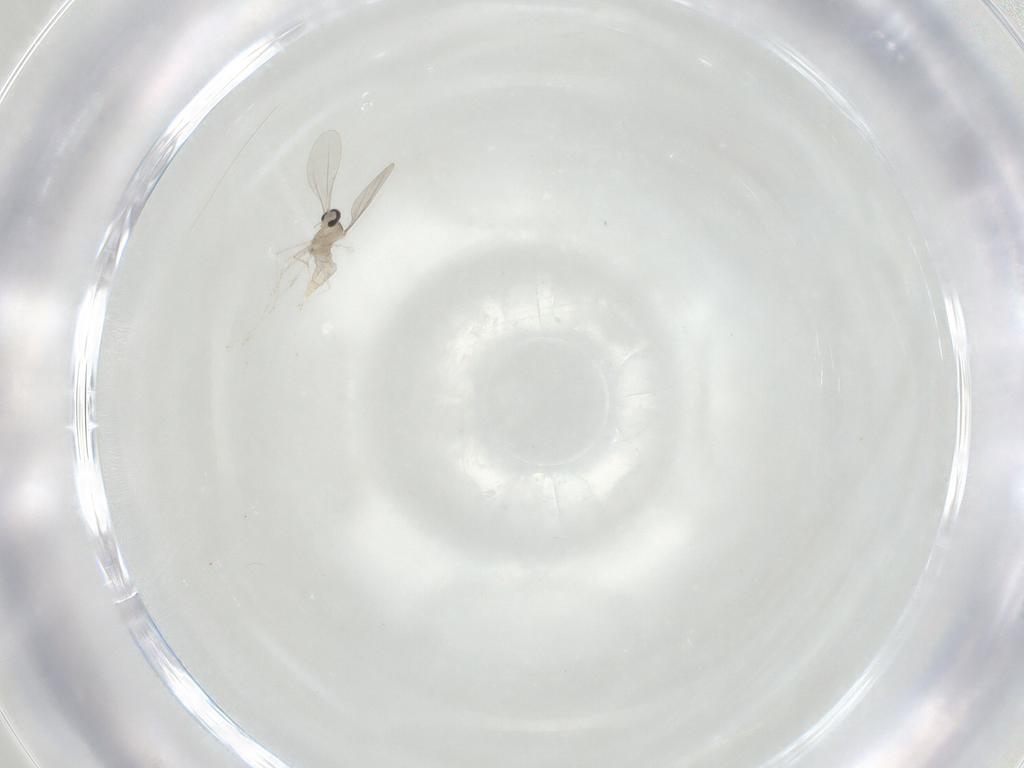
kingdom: Animalia
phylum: Arthropoda
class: Insecta
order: Diptera
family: Cecidomyiidae
